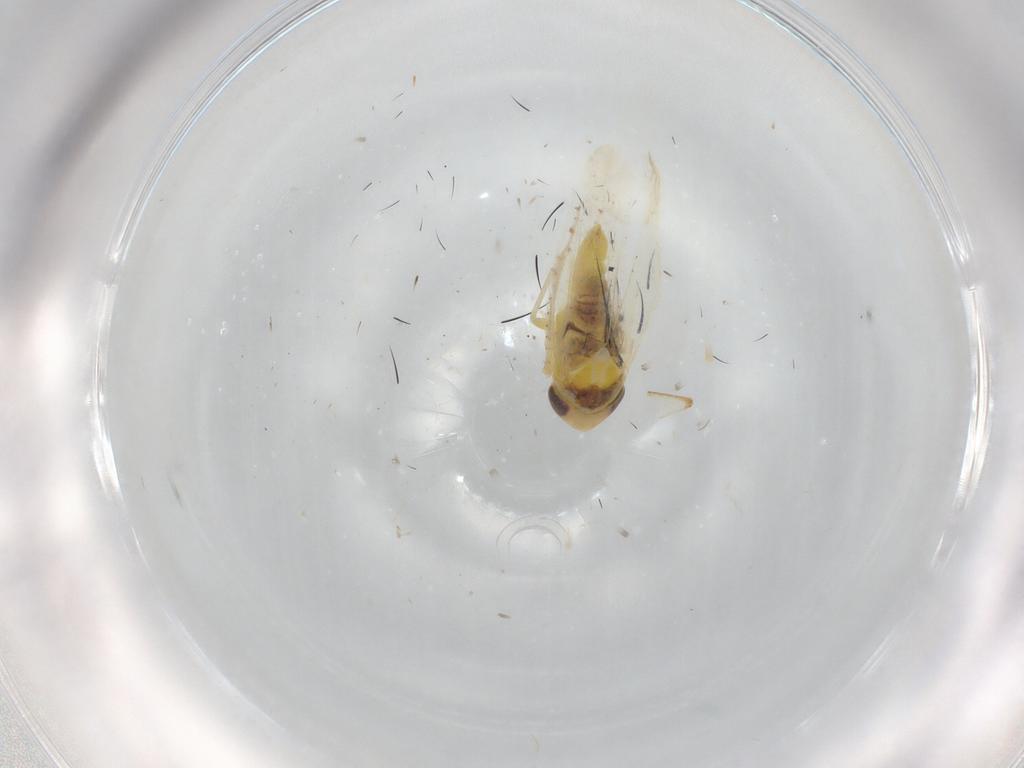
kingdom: Animalia
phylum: Arthropoda
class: Insecta
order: Hemiptera
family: Cicadellidae
